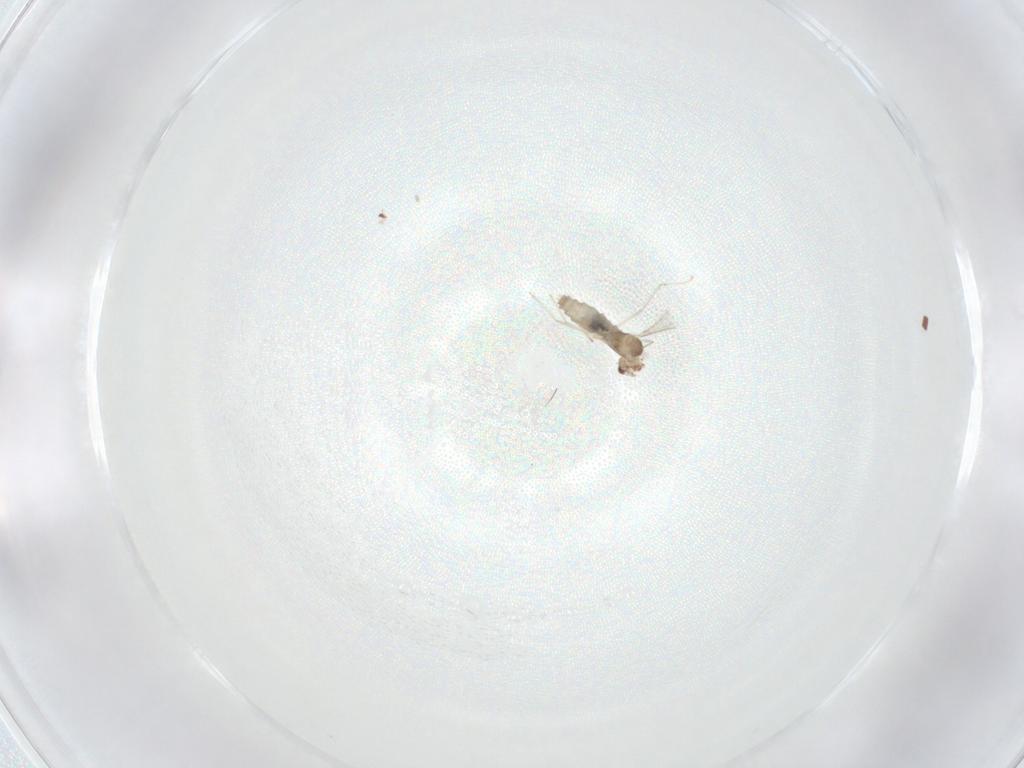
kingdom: Animalia
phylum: Arthropoda
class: Insecta
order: Diptera
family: Cecidomyiidae
